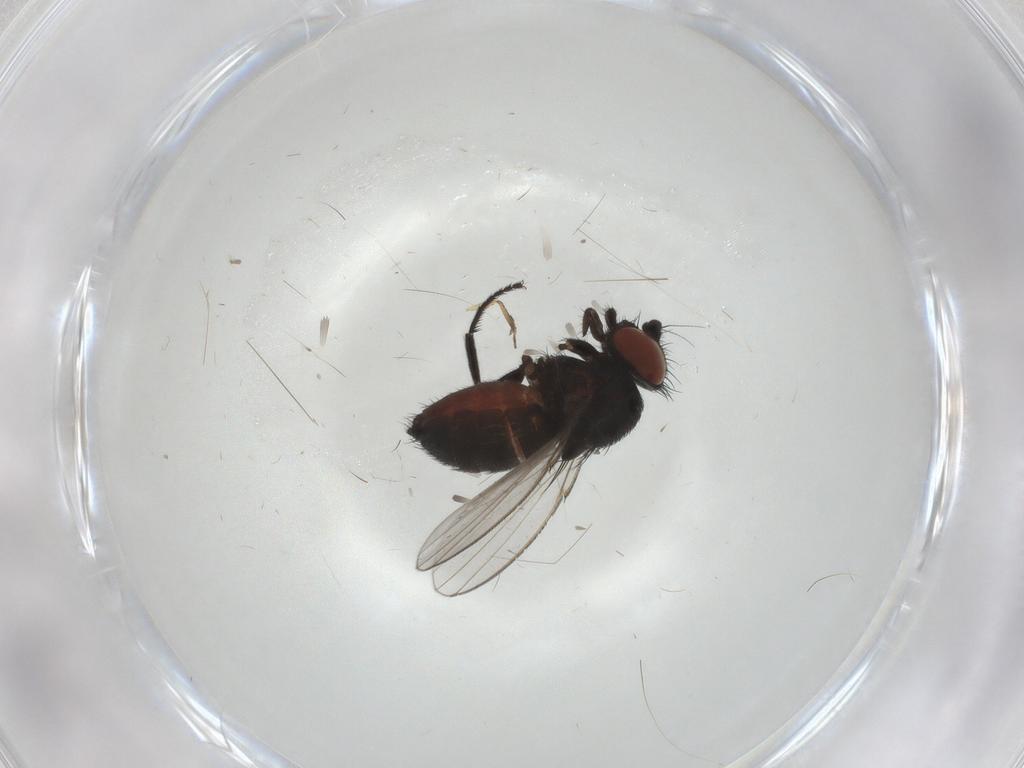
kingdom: Animalia
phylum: Arthropoda
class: Insecta
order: Diptera
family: Milichiidae
